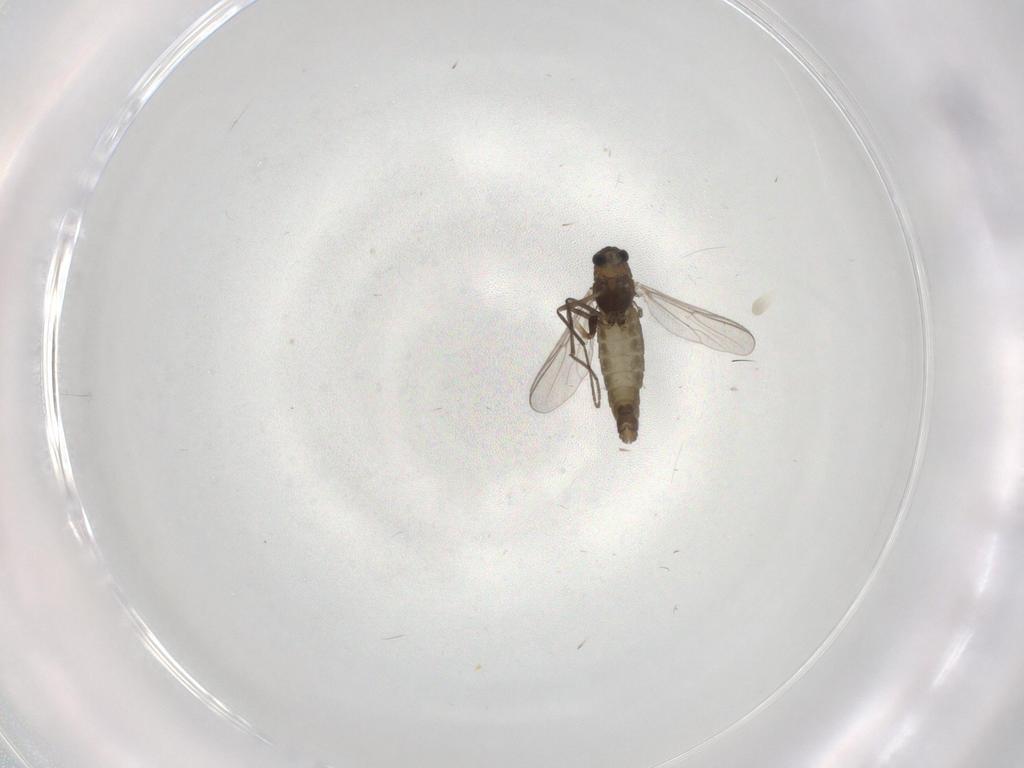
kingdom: Animalia
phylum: Arthropoda
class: Insecta
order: Diptera
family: Chironomidae
